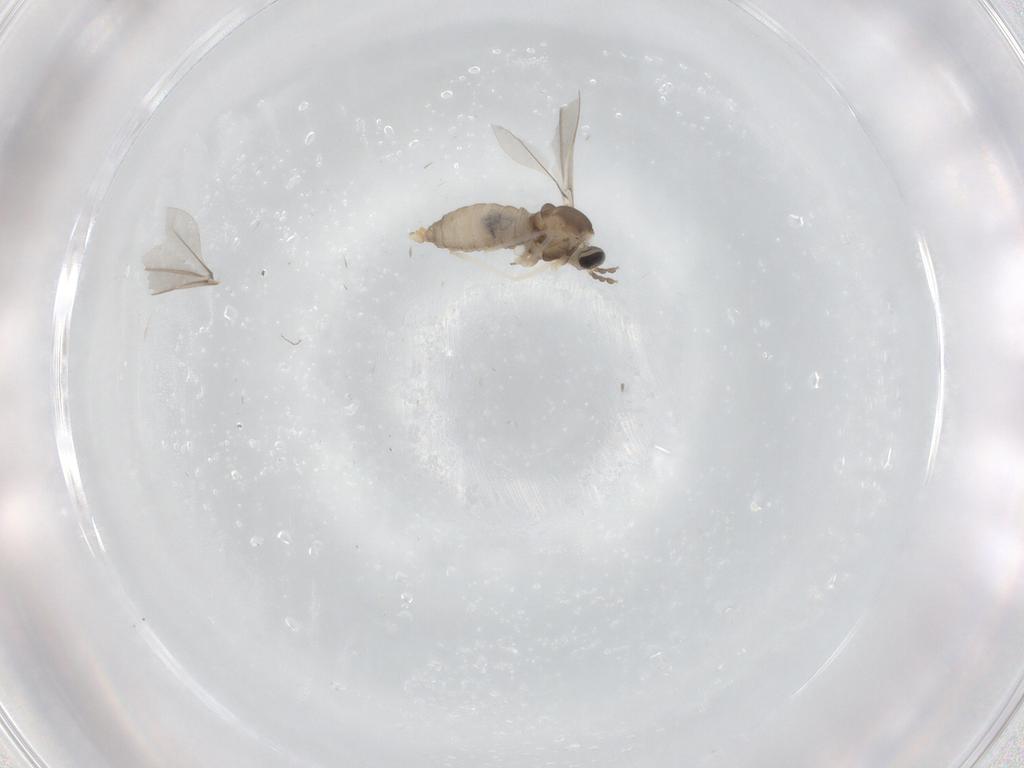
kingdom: Animalia
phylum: Arthropoda
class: Insecta
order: Diptera
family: Cecidomyiidae
